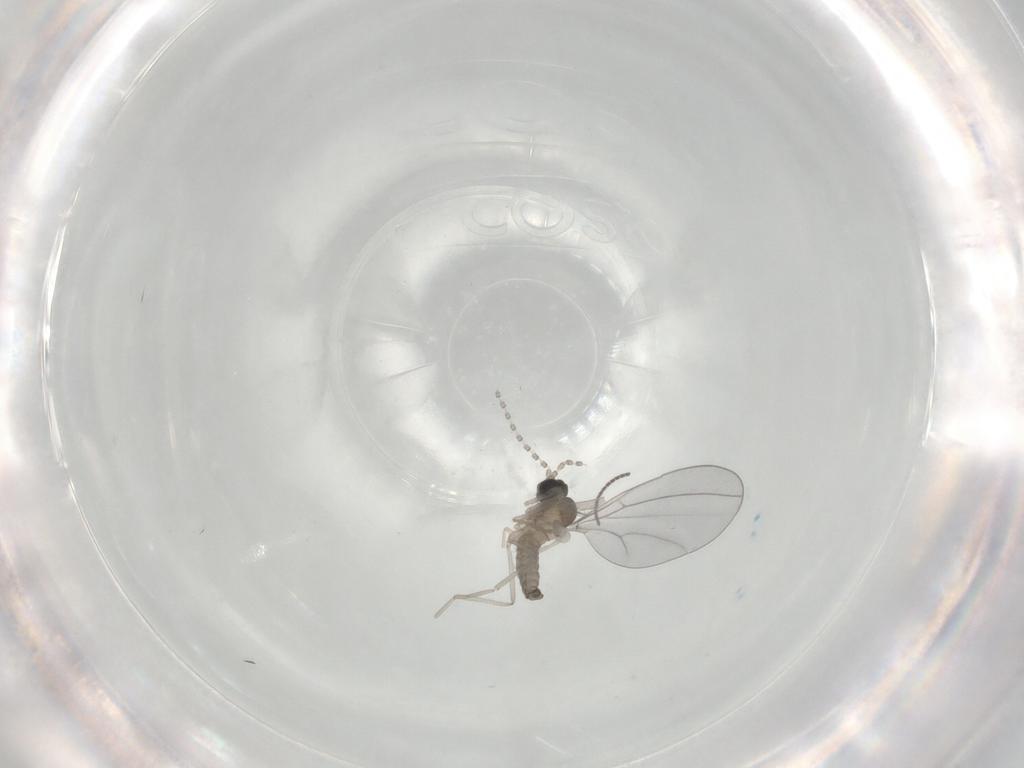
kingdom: Animalia
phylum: Arthropoda
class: Insecta
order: Diptera
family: Cecidomyiidae
